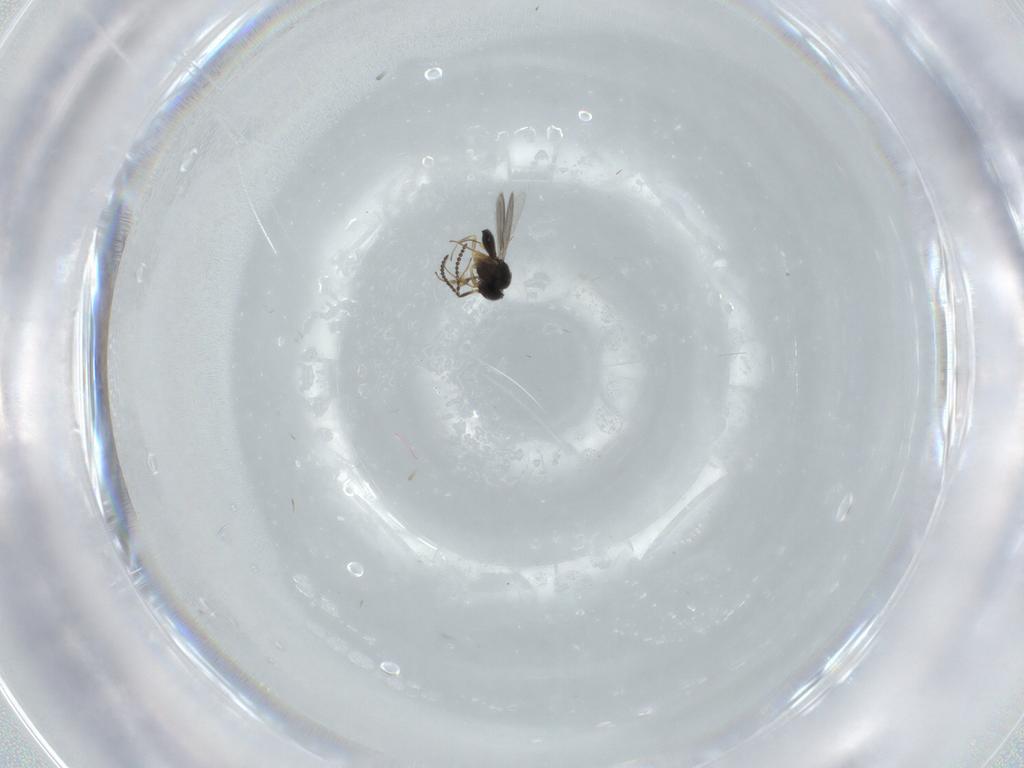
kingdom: Animalia
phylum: Arthropoda
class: Insecta
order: Hymenoptera
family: Scelionidae
